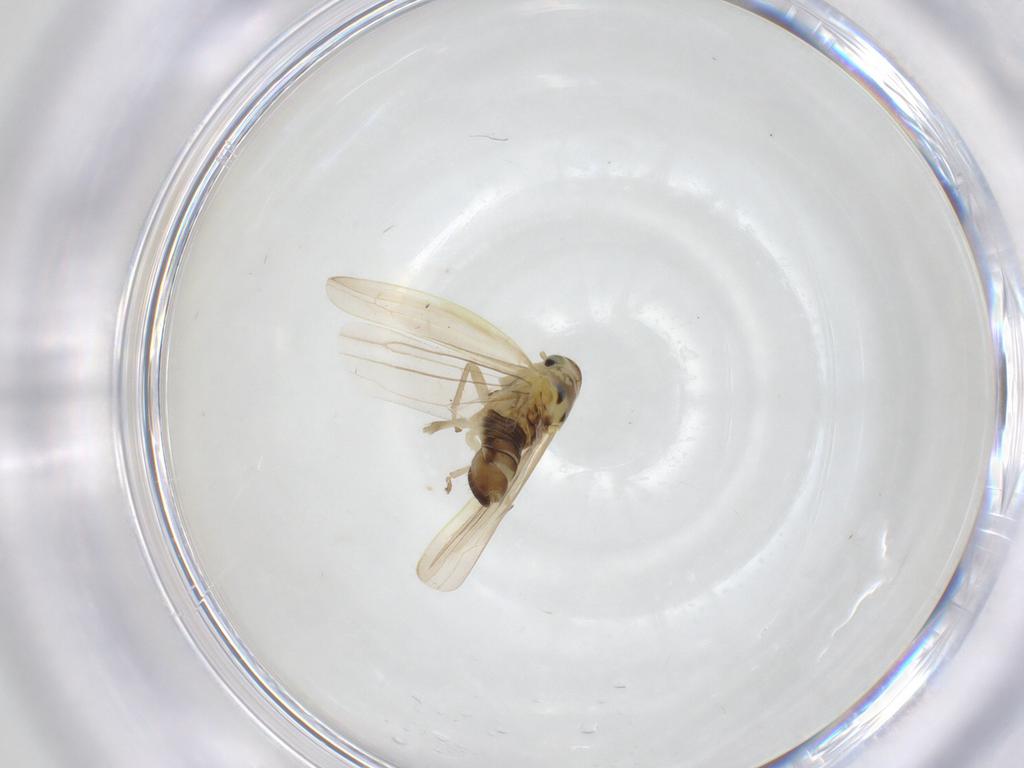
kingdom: Animalia
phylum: Arthropoda
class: Insecta
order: Hemiptera
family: Cicadellidae
